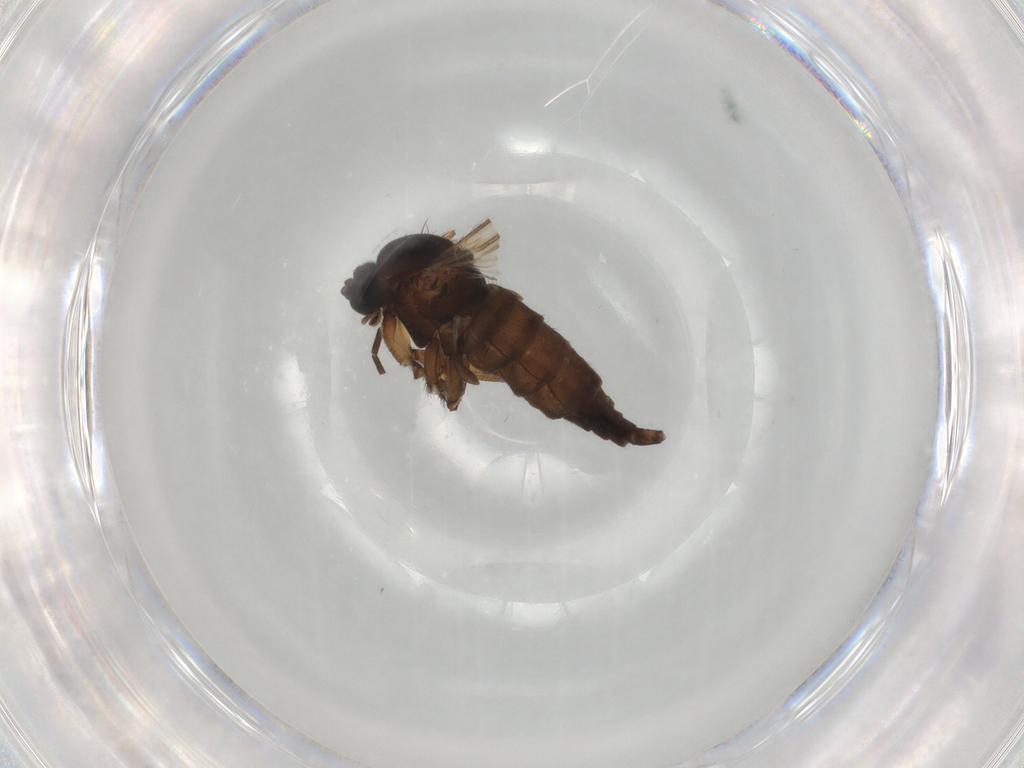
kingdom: Animalia
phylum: Arthropoda
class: Insecta
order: Diptera
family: Sciaridae
